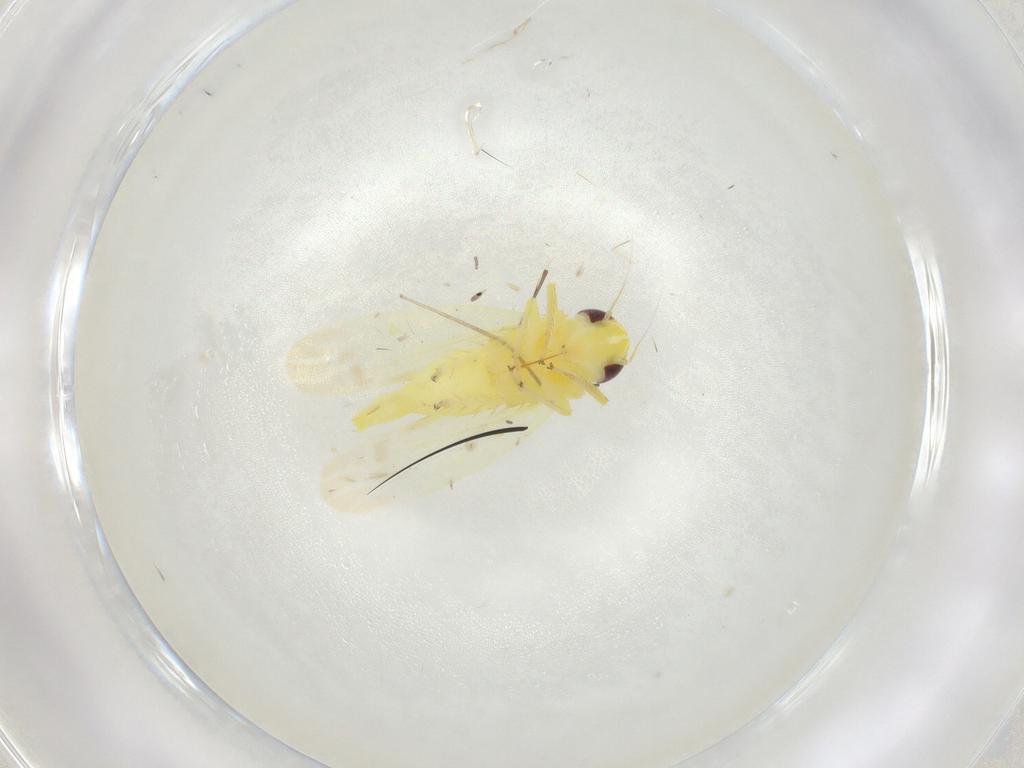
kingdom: Animalia
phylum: Arthropoda
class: Insecta
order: Hemiptera
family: Cicadellidae
